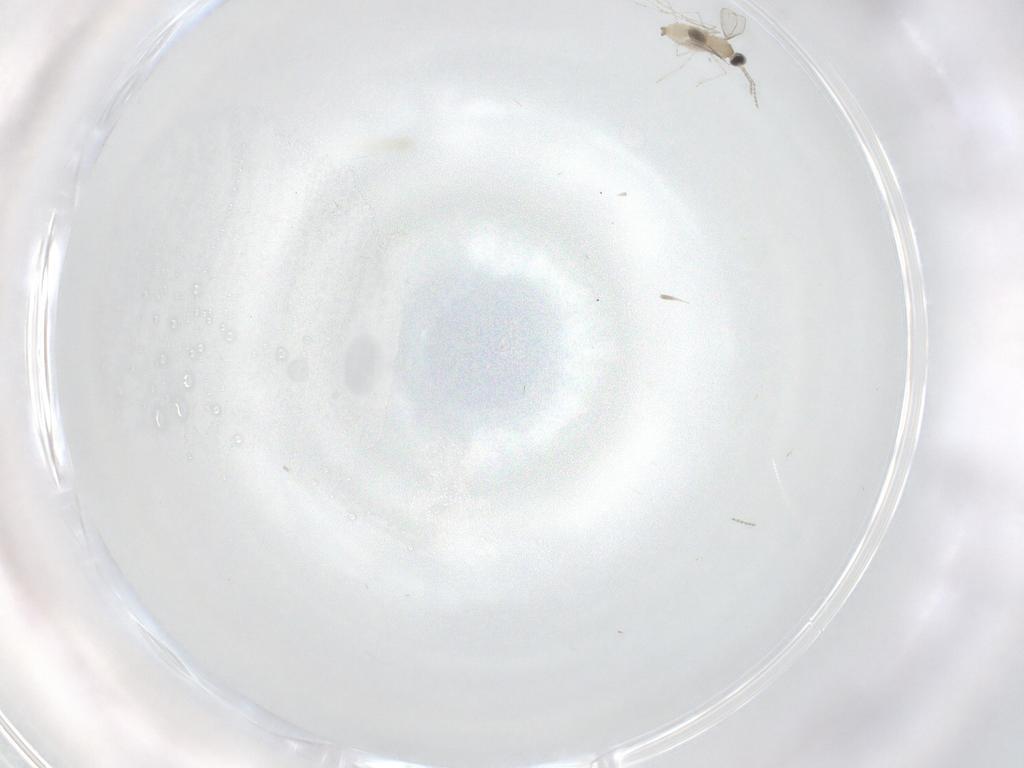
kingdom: Animalia
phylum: Arthropoda
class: Insecta
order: Diptera
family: Cecidomyiidae
